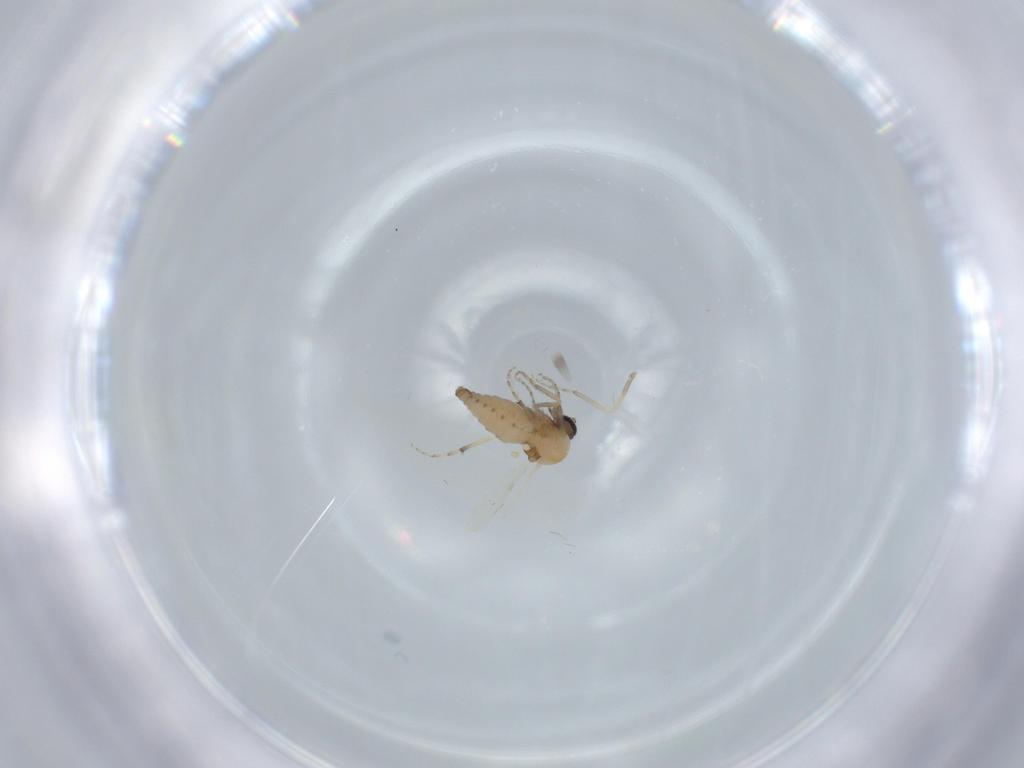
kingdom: Animalia
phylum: Arthropoda
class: Insecta
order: Diptera
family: Ceratopogonidae
